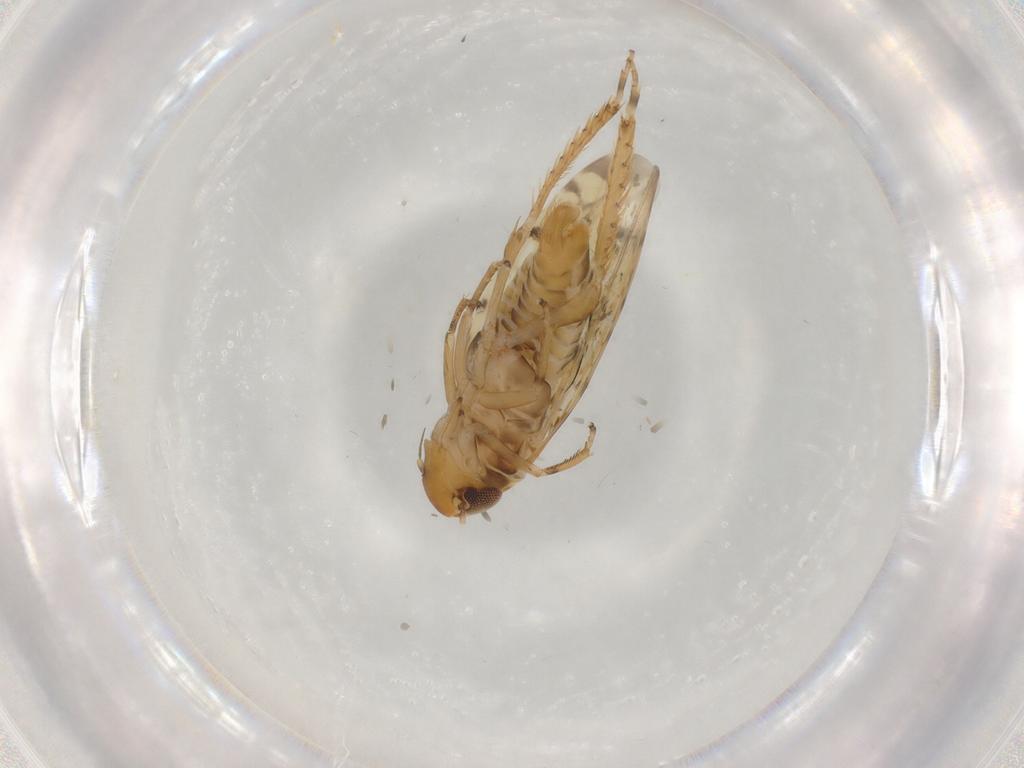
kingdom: Animalia
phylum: Arthropoda
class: Insecta
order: Hemiptera
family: Cicadellidae
